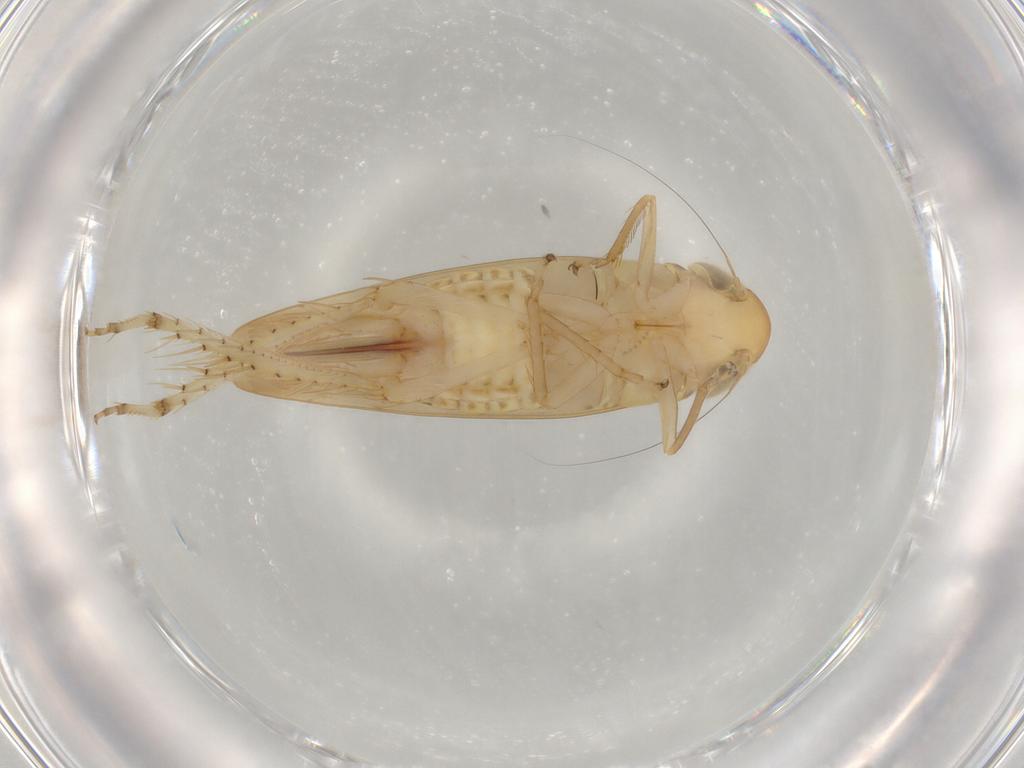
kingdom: Animalia
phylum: Arthropoda
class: Insecta
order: Hemiptera
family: Cicadellidae
